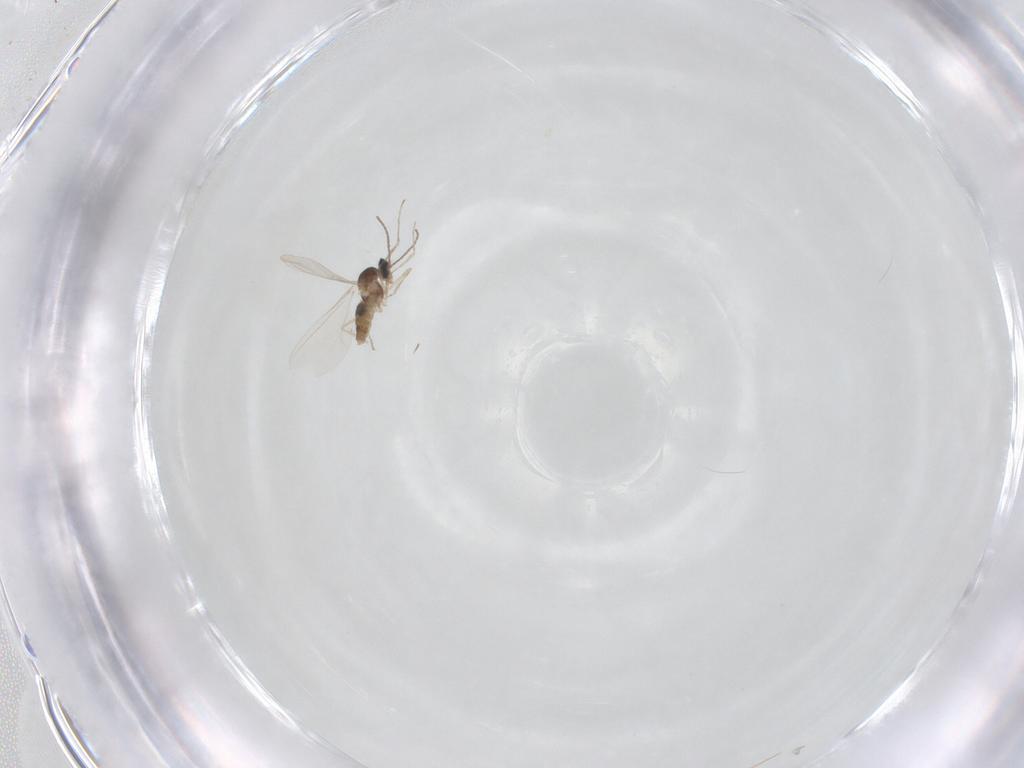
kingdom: Animalia
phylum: Arthropoda
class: Insecta
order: Diptera
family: Cecidomyiidae
